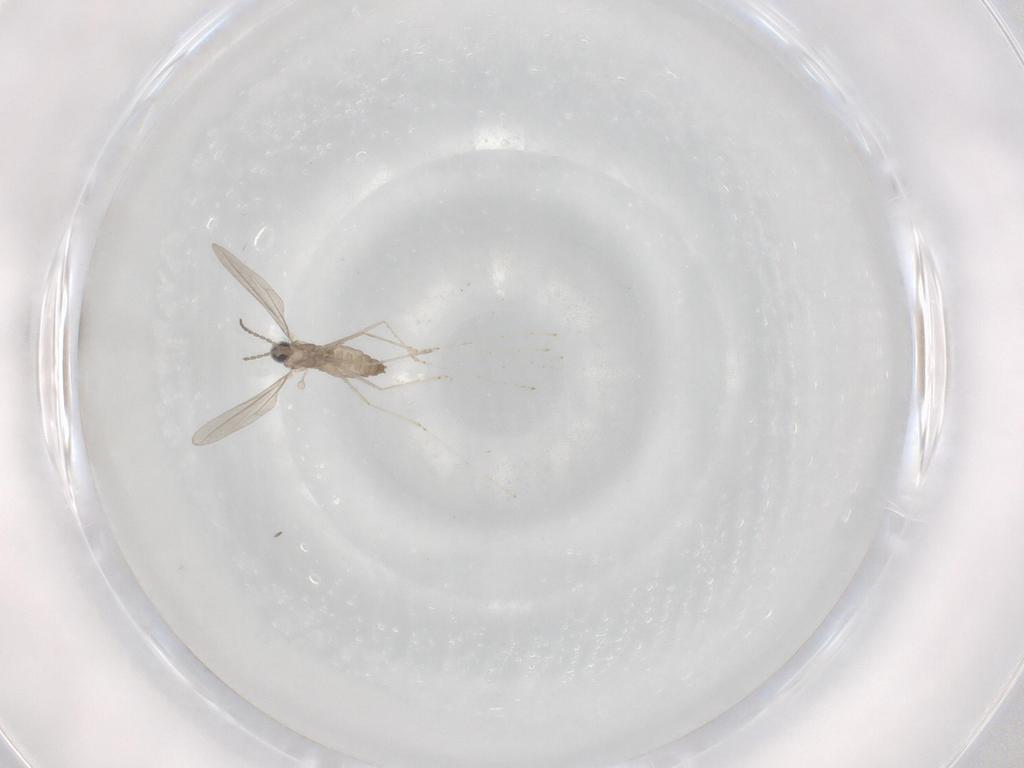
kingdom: Animalia
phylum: Arthropoda
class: Insecta
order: Diptera
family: Cecidomyiidae
